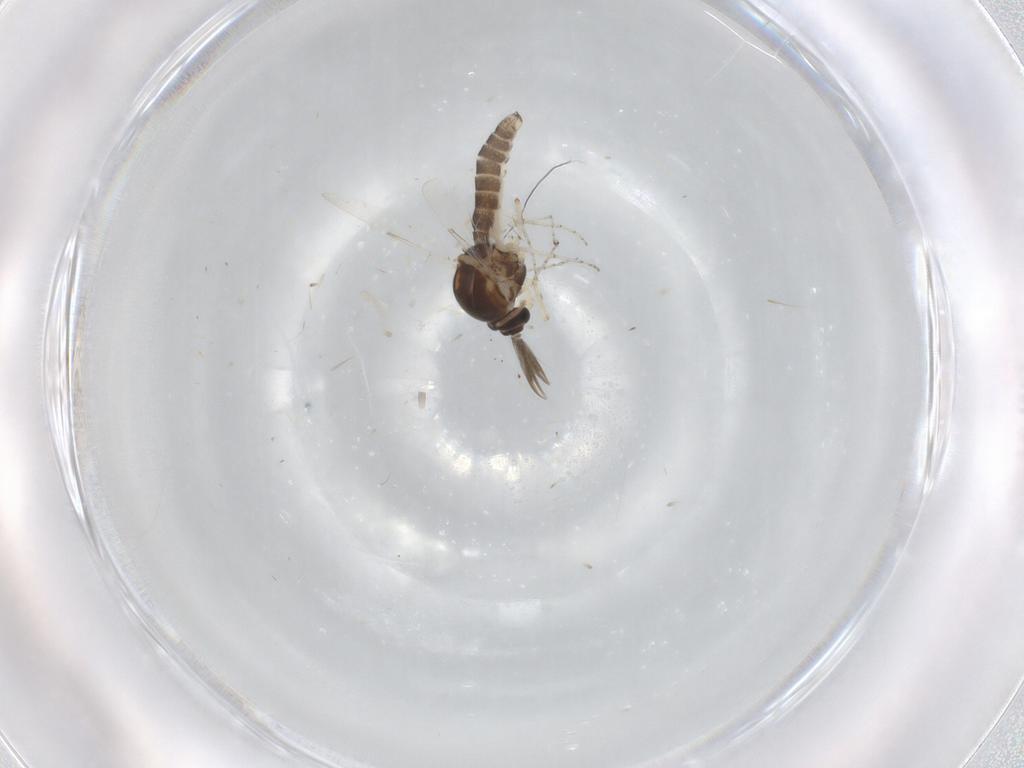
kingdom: Animalia
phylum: Arthropoda
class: Insecta
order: Diptera
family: Ceratopogonidae
